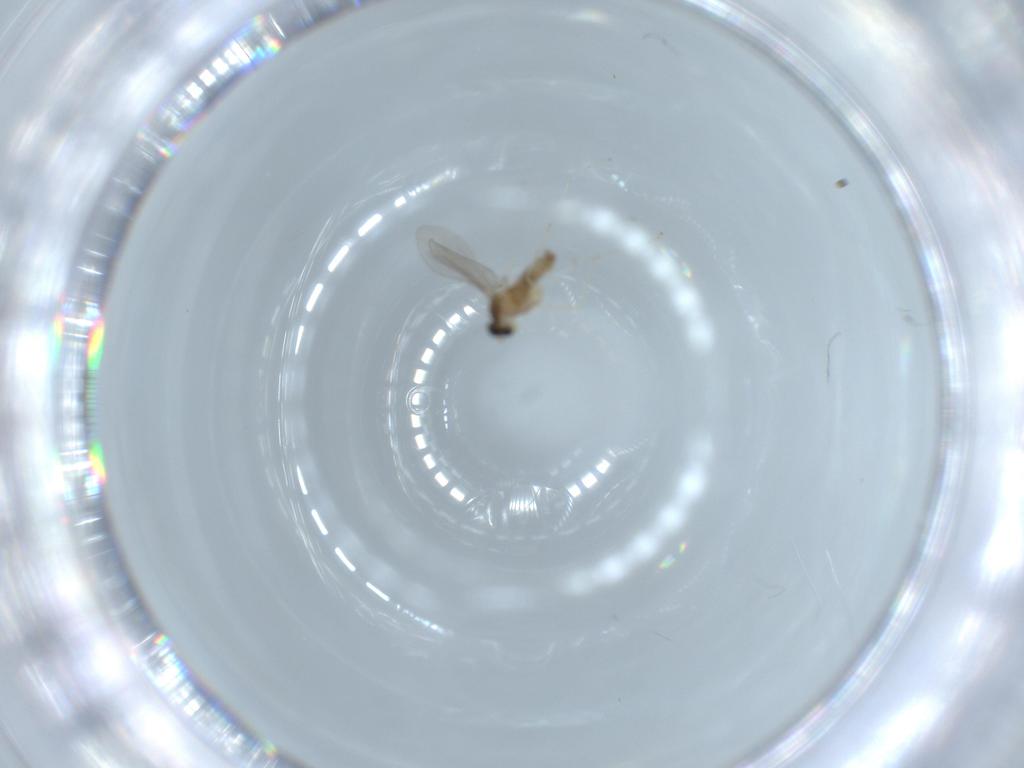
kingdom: Animalia
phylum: Arthropoda
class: Insecta
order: Diptera
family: Cecidomyiidae
